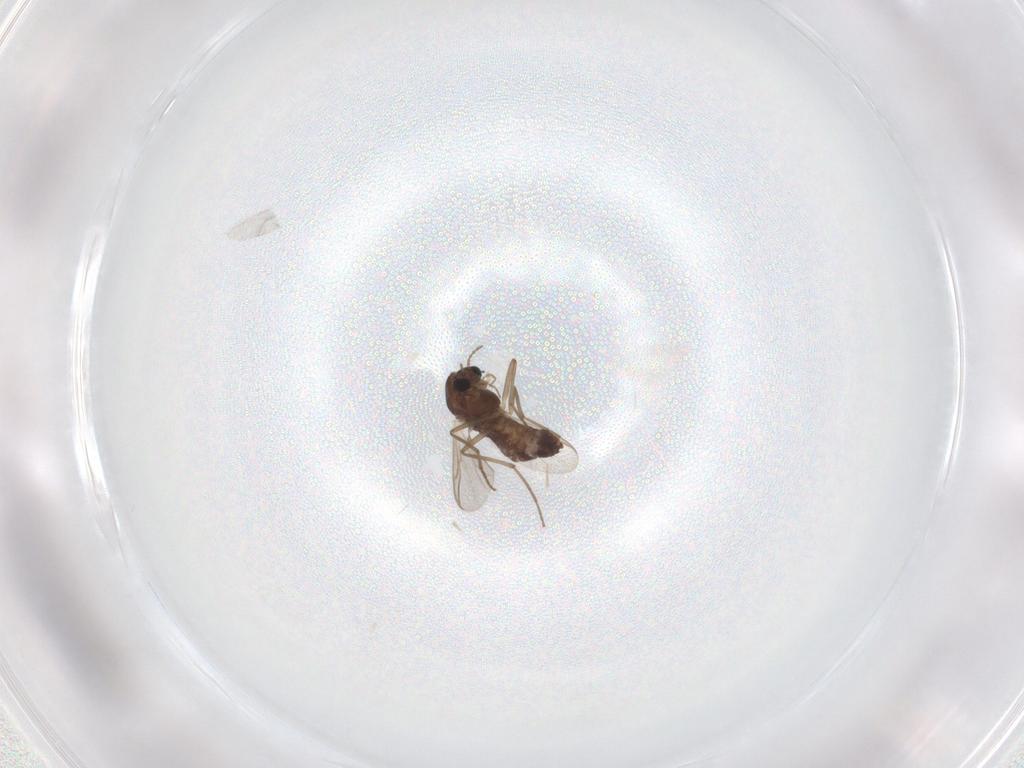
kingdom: Animalia
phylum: Arthropoda
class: Insecta
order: Diptera
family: Chironomidae
